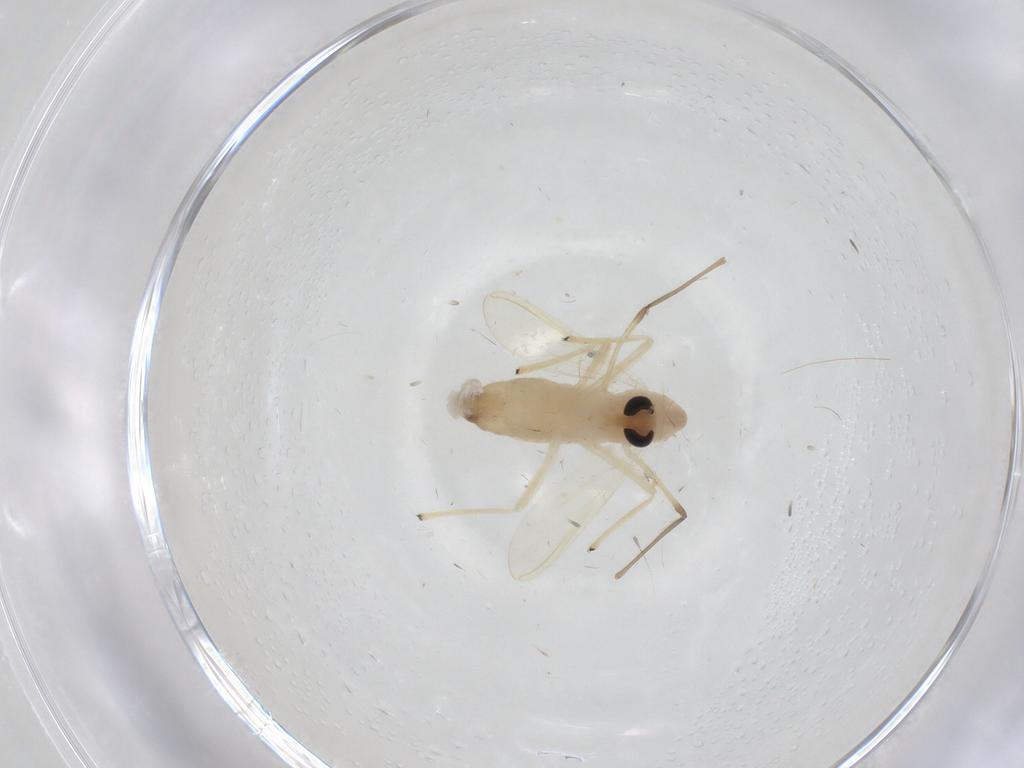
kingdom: Animalia
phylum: Arthropoda
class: Insecta
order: Diptera
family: Chironomidae
